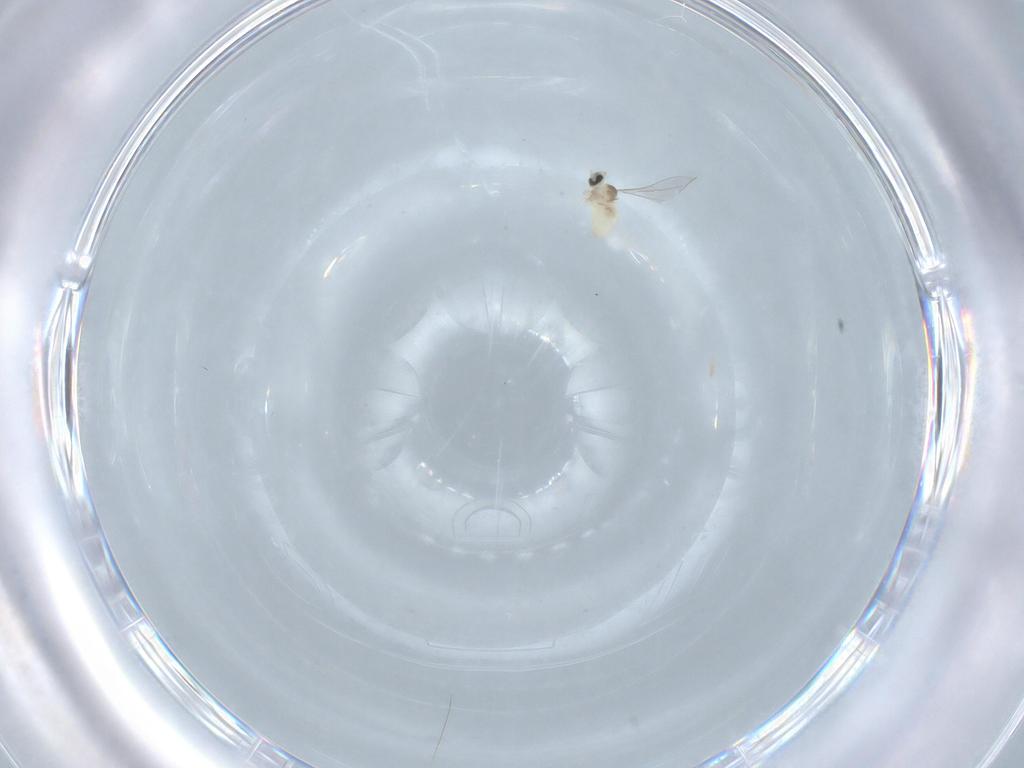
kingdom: Animalia
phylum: Arthropoda
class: Insecta
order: Diptera
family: Cecidomyiidae
